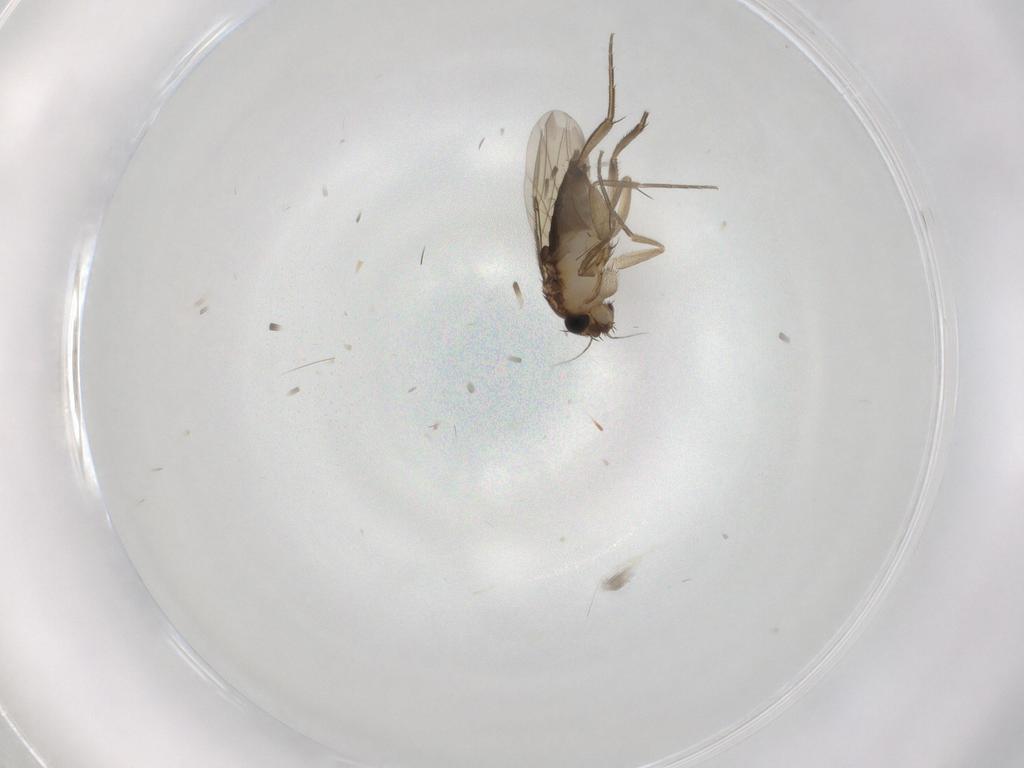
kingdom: Animalia
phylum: Arthropoda
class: Insecta
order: Diptera
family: Phoridae
